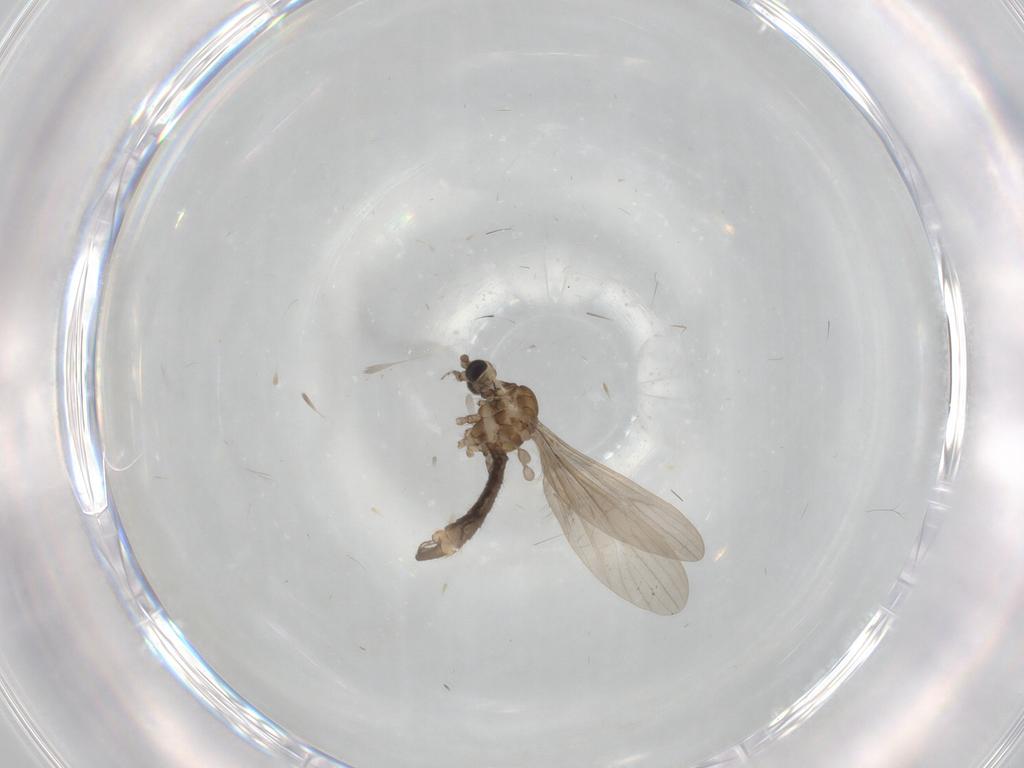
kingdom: Animalia
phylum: Arthropoda
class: Insecta
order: Diptera
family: Limoniidae
